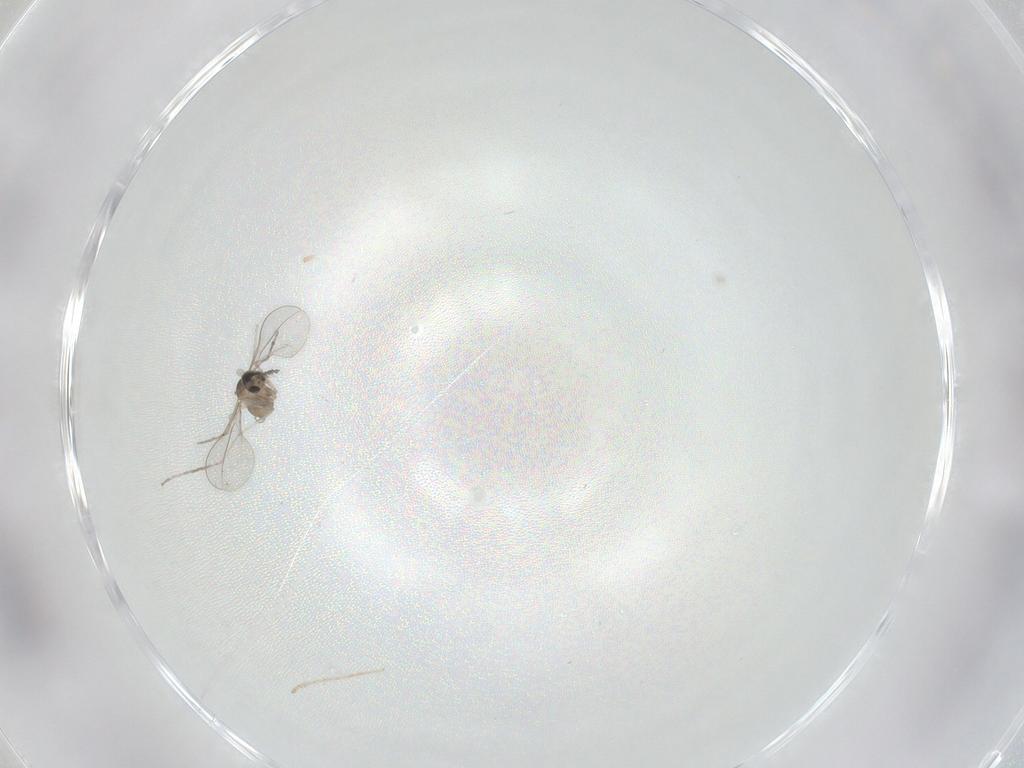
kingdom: Animalia
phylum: Arthropoda
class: Insecta
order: Diptera
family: Cecidomyiidae
